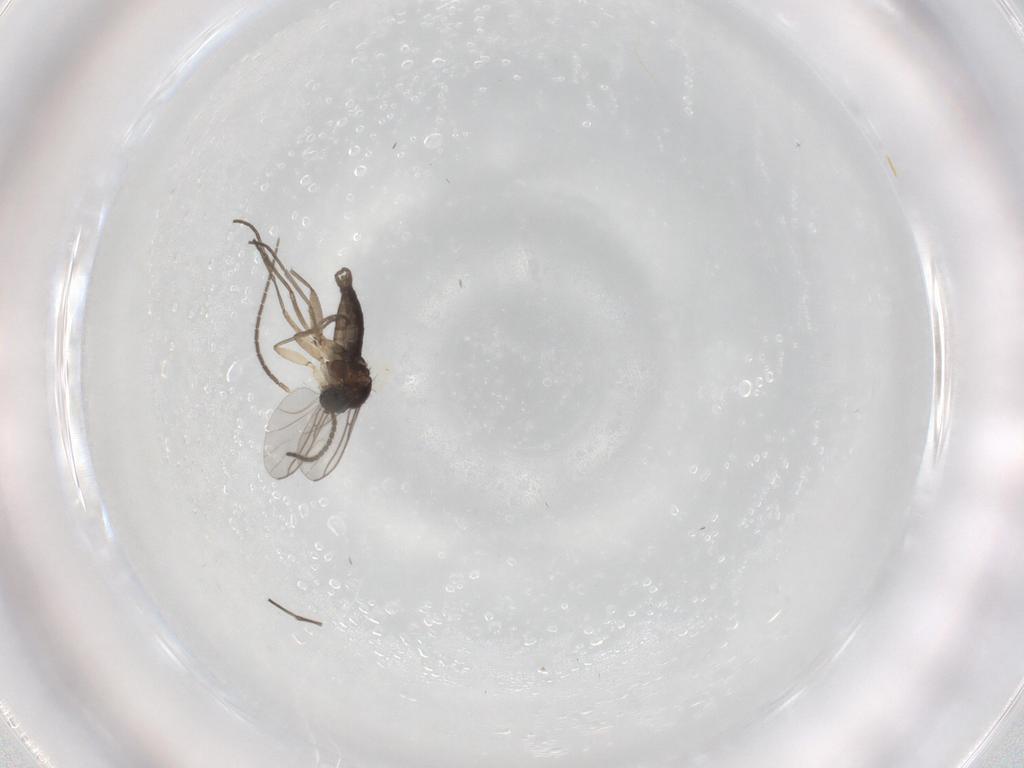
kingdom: Animalia
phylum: Arthropoda
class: Insecta
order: Diptera
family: Sciaridae
